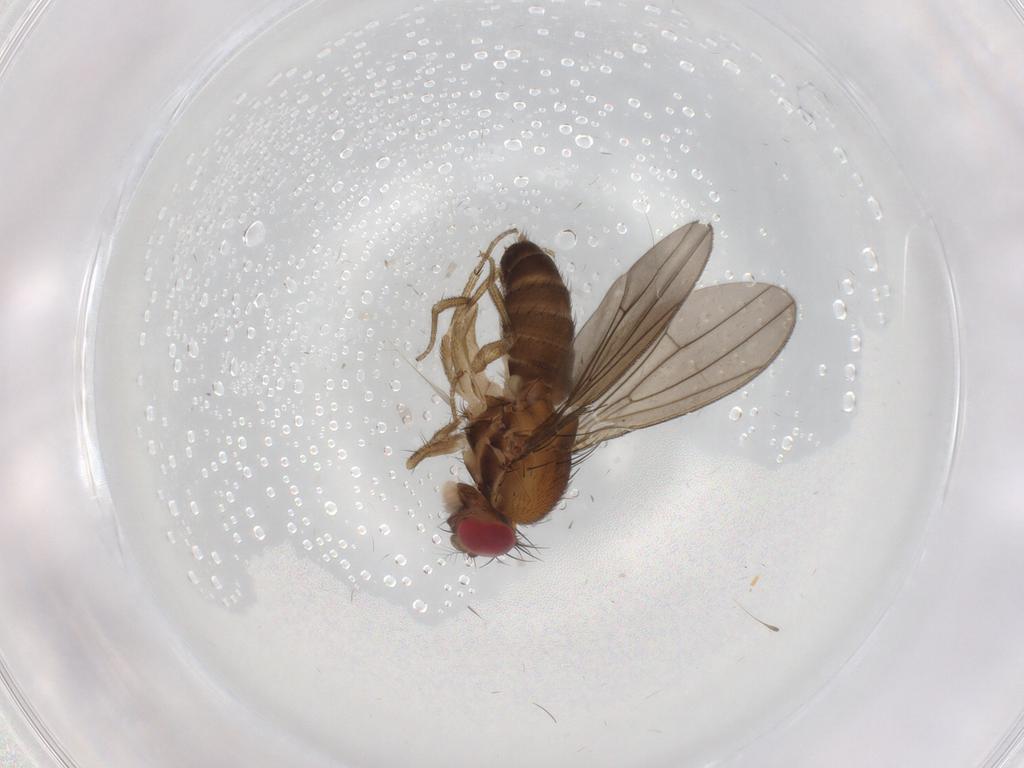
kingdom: Animalia
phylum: Arthropoda
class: Insecta
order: Diptera
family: Drosophilidae
